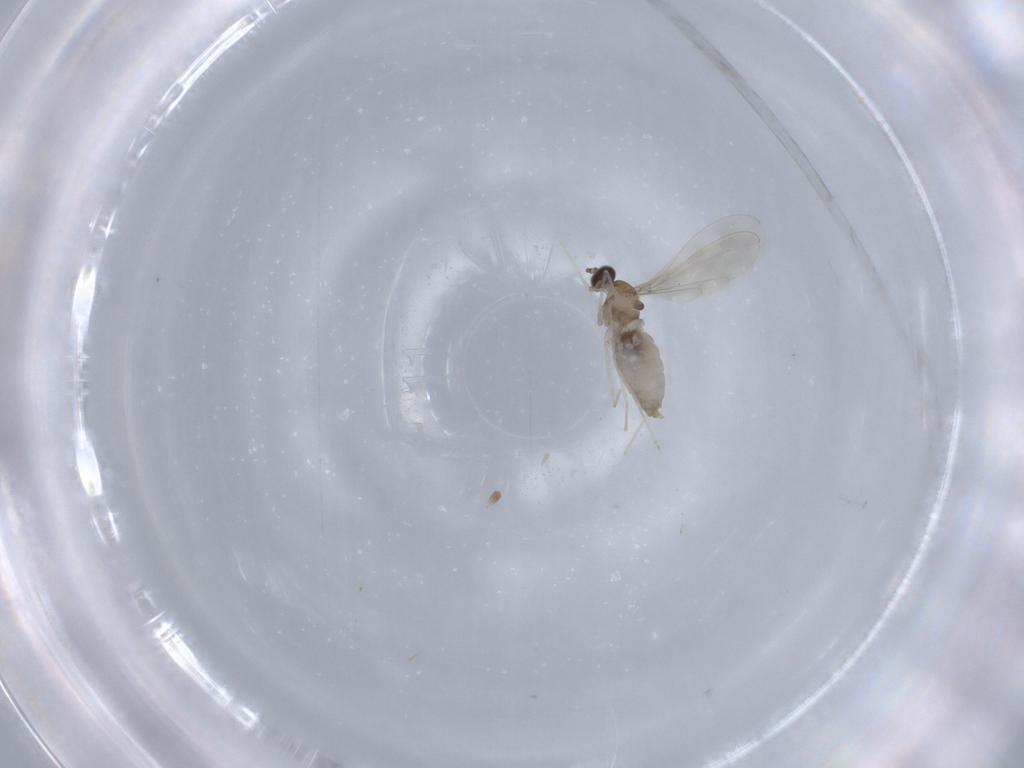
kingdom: Animalia
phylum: Arthropoda
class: Insecta
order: Diptera
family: Cecidomyiidae
